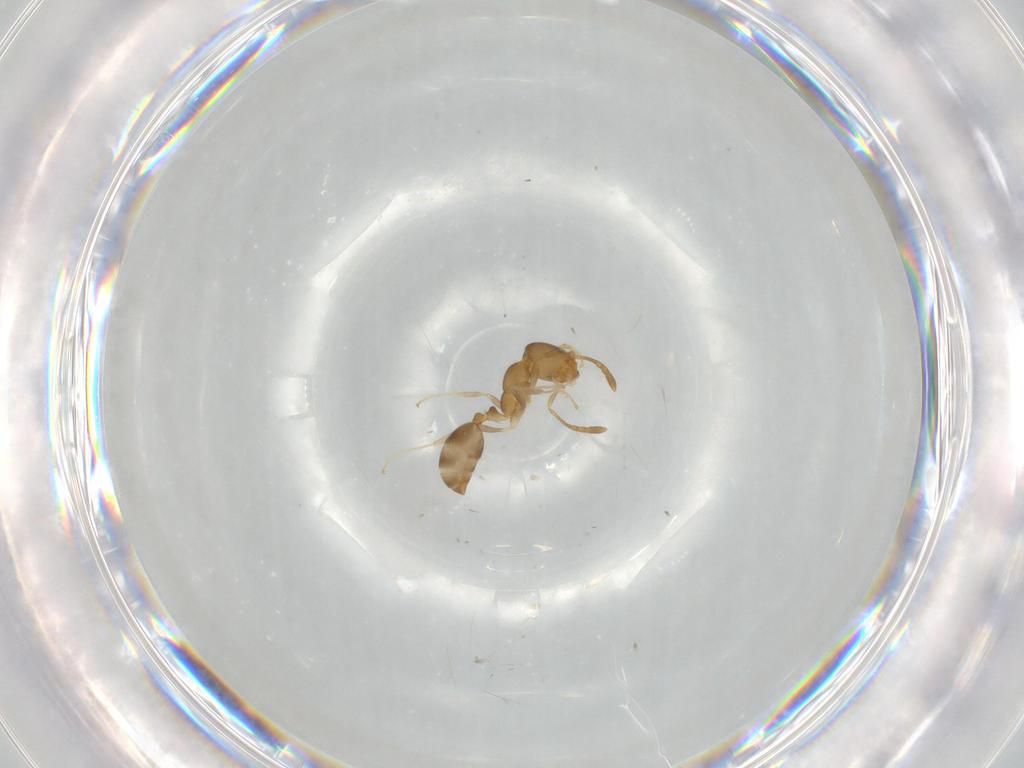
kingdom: Animalia
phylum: Arthropoda
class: Insecta
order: Hymenoptera
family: Formicidae
